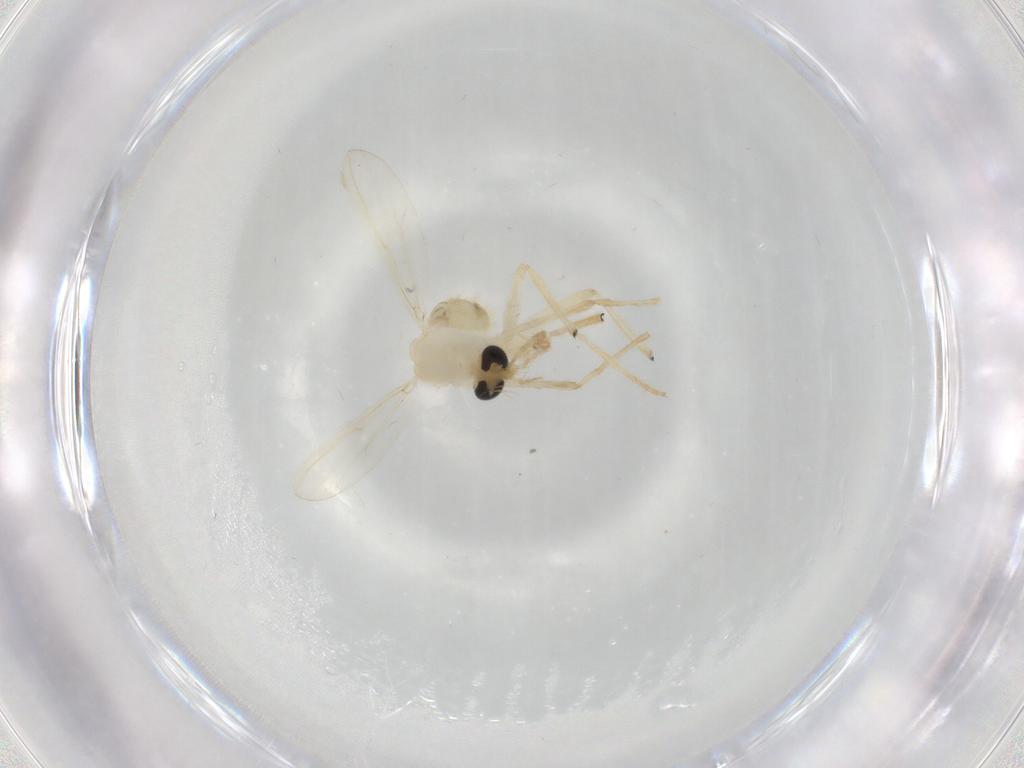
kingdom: Animalia
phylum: Arthropoda
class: Insecta
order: Diptera
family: Chironomidae
